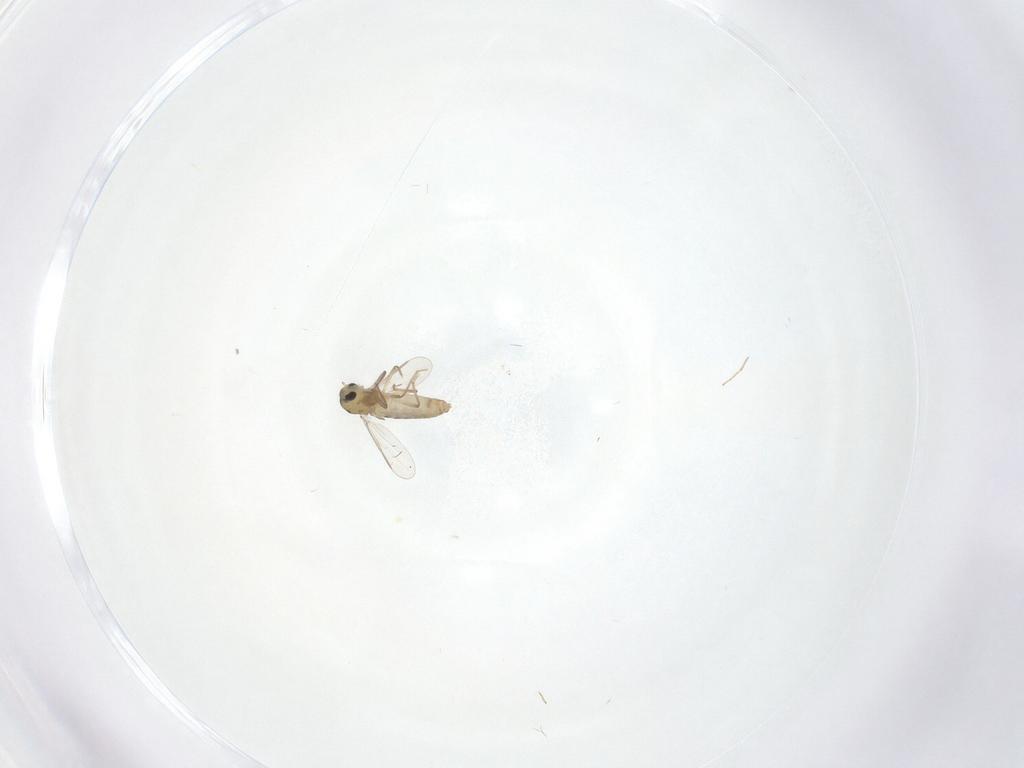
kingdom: Animalia
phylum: Arthropoda
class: Insecta
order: Diptera
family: Chironomidae
